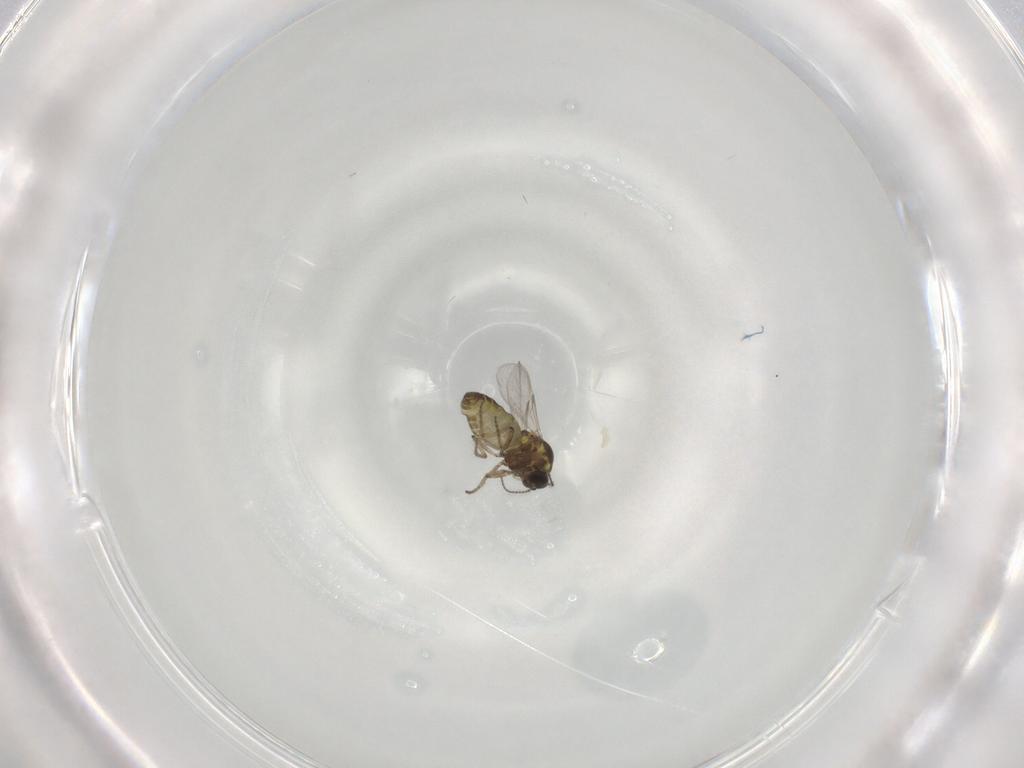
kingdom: Animalia
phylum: Arthropoda
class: Insecta
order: Diptera
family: Ceratopogonidae
